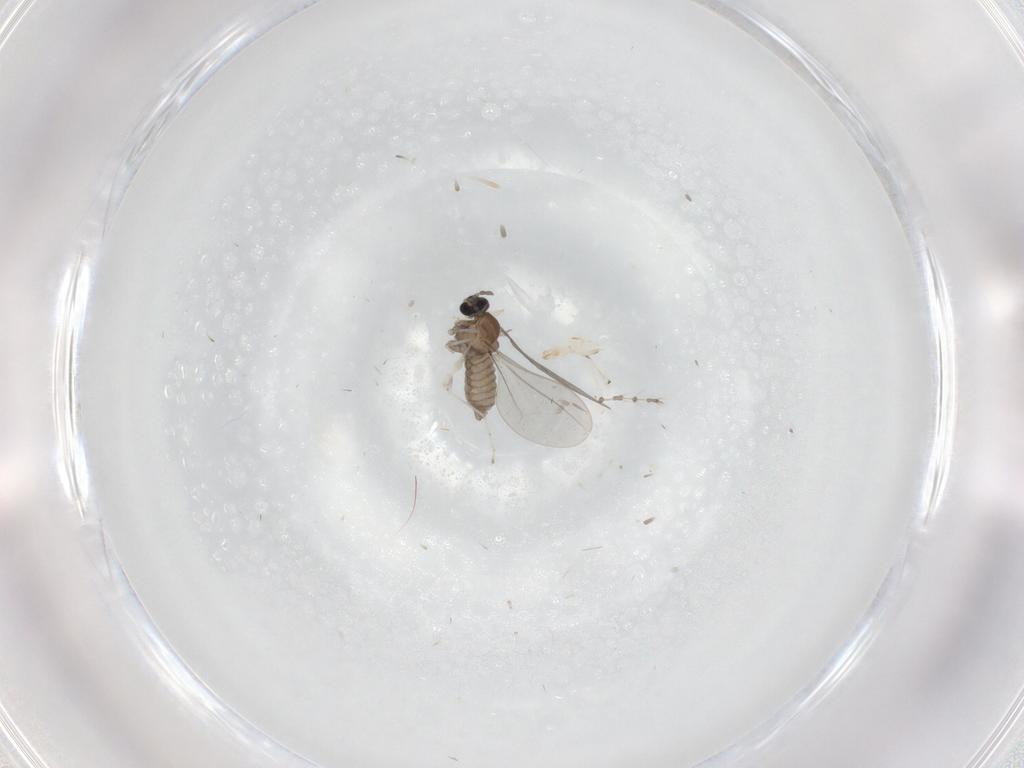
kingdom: Animalia
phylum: Arthropoda
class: Insecta
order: Diptera
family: Cecidomyiidae
